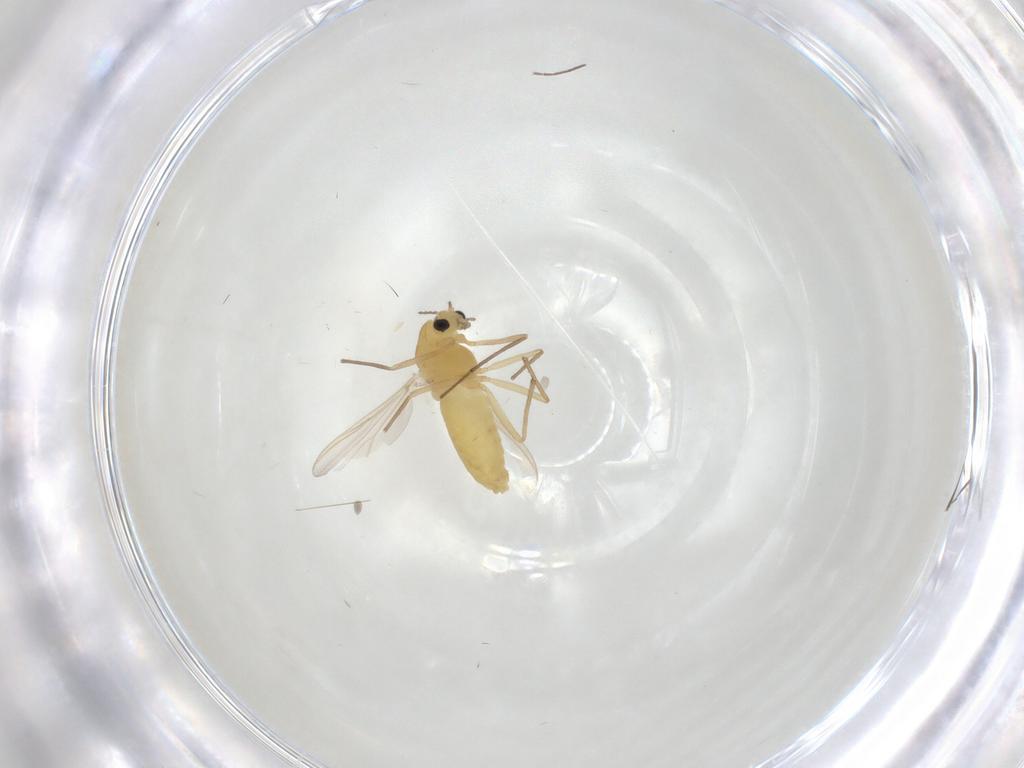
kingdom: Animalia
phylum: Arthropoda
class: Insecta
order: Diptera
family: Chironomidae
